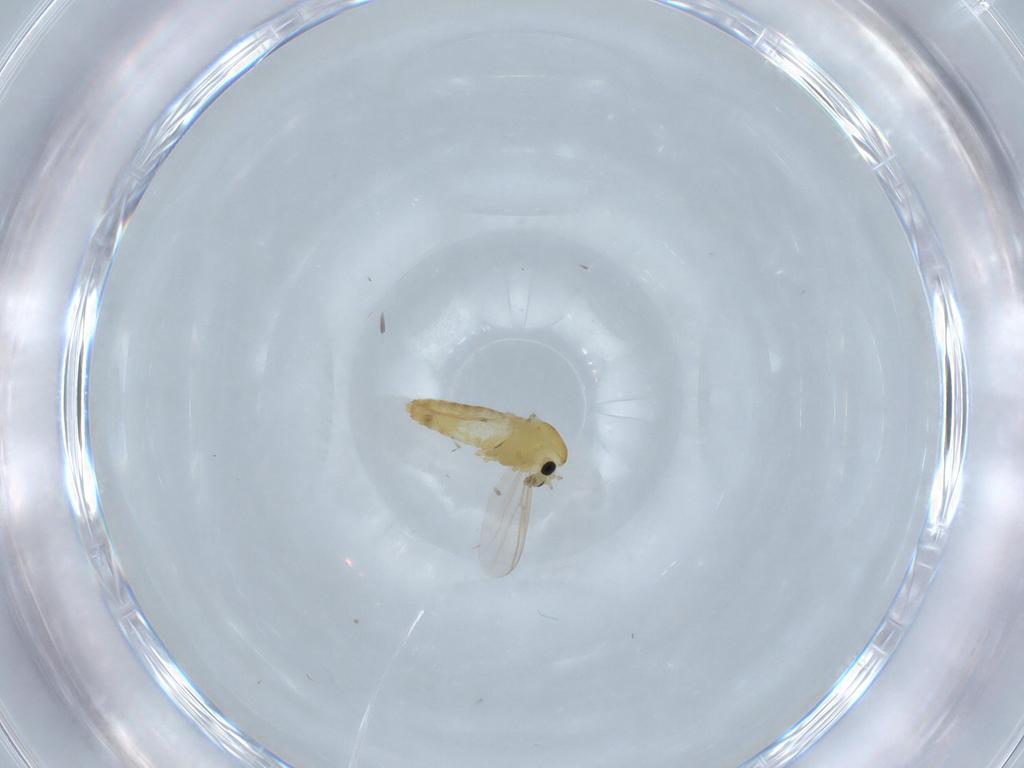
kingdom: Animalia
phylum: Arthropoda
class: Insecta
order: Diptera
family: Chironomidae
